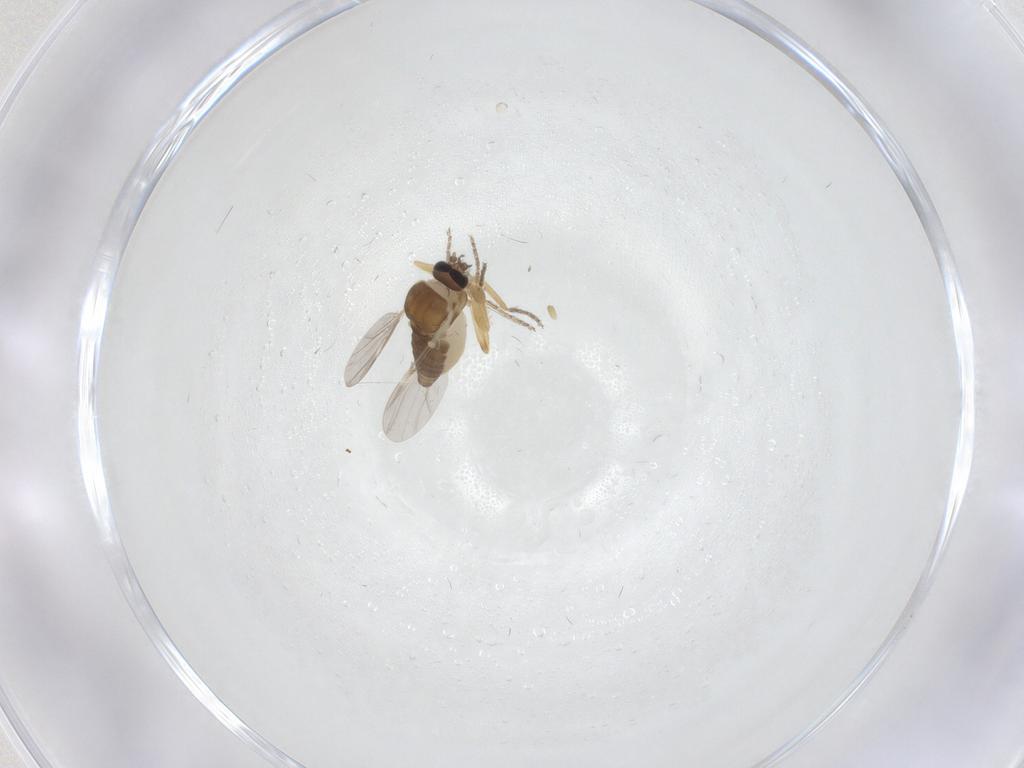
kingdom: Animalia
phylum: Arthropoda
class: Insecta
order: Diptera
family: Ceratopogonidae
